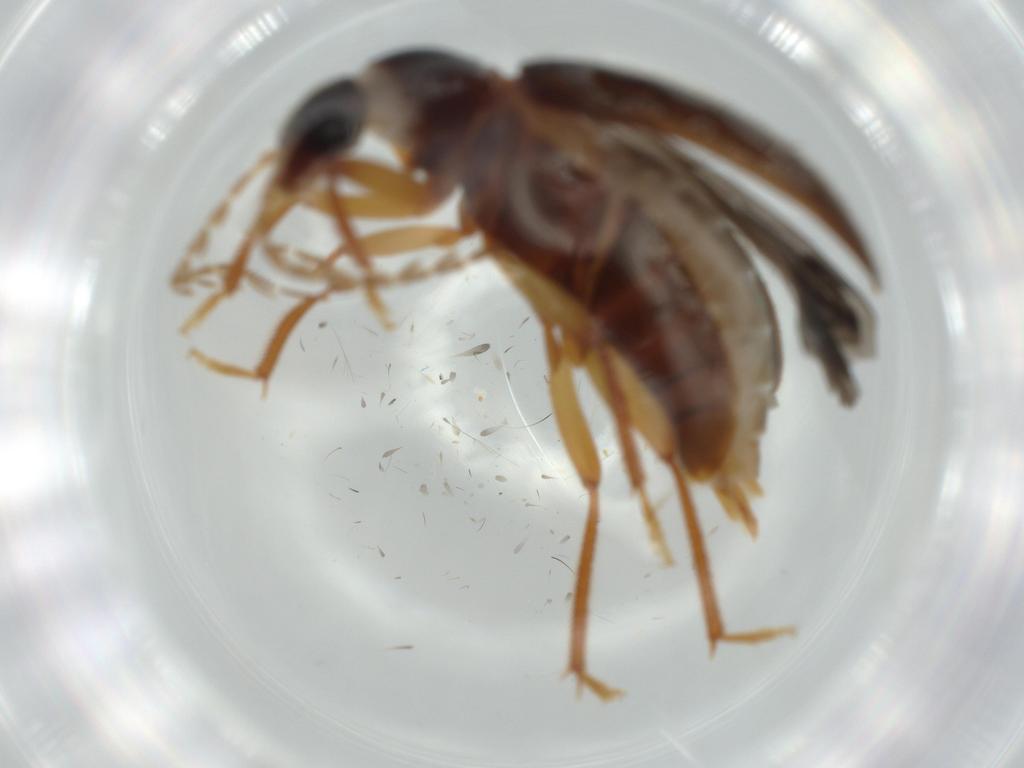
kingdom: Animalia
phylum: Arthropoda
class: Insecta
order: Coleoptera
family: Ptilodactylidae
